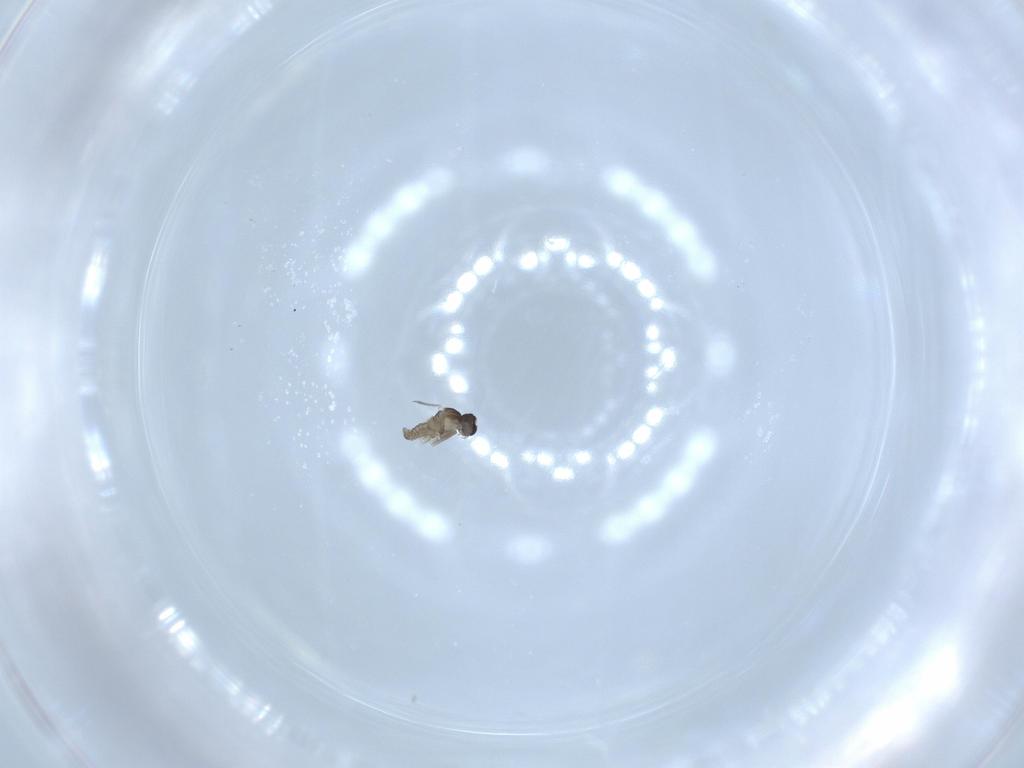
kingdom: Animalia
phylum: Arthropoda
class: Insecta
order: Diptera
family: Cecidomyiidae
